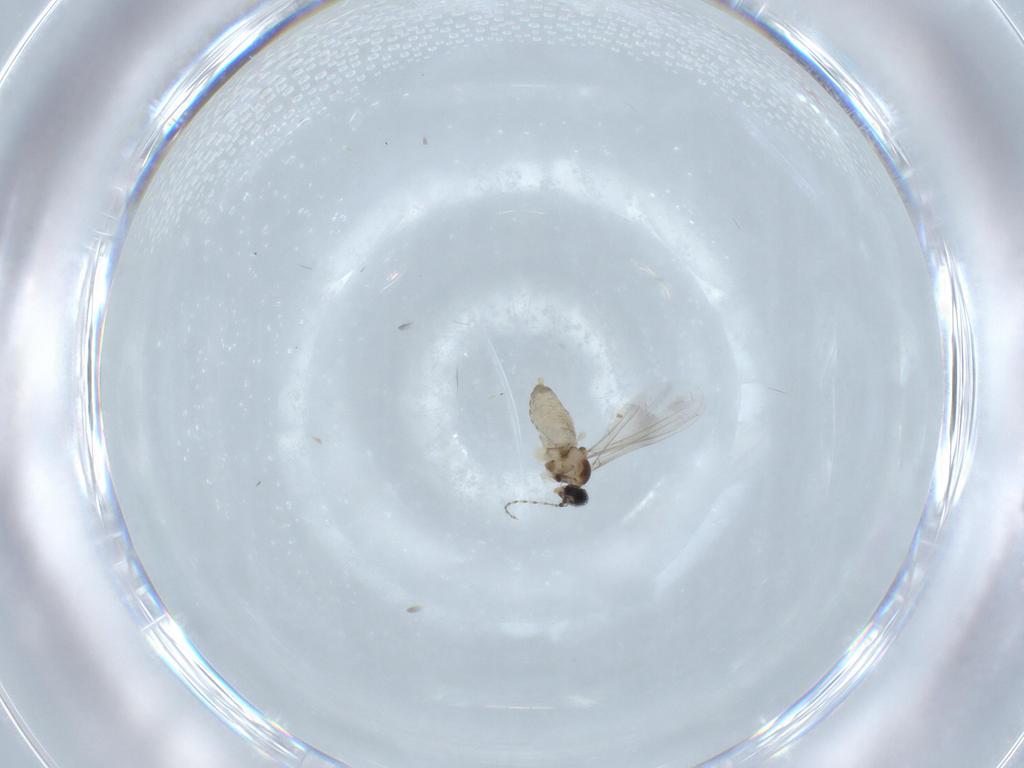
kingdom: Animalia
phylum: Arthropoda
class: Insecta
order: Diptera
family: Cecidomyiidae
